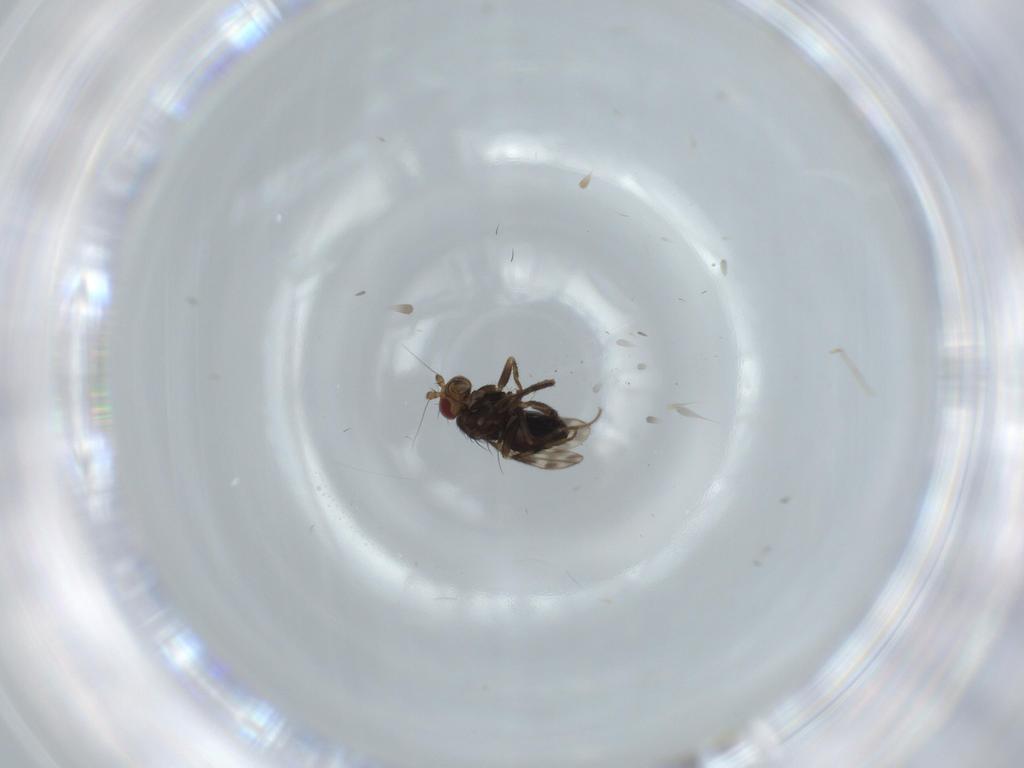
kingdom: Animalia
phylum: Arthropoda
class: Insecta
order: Diptera
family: Sphaeroceridae
